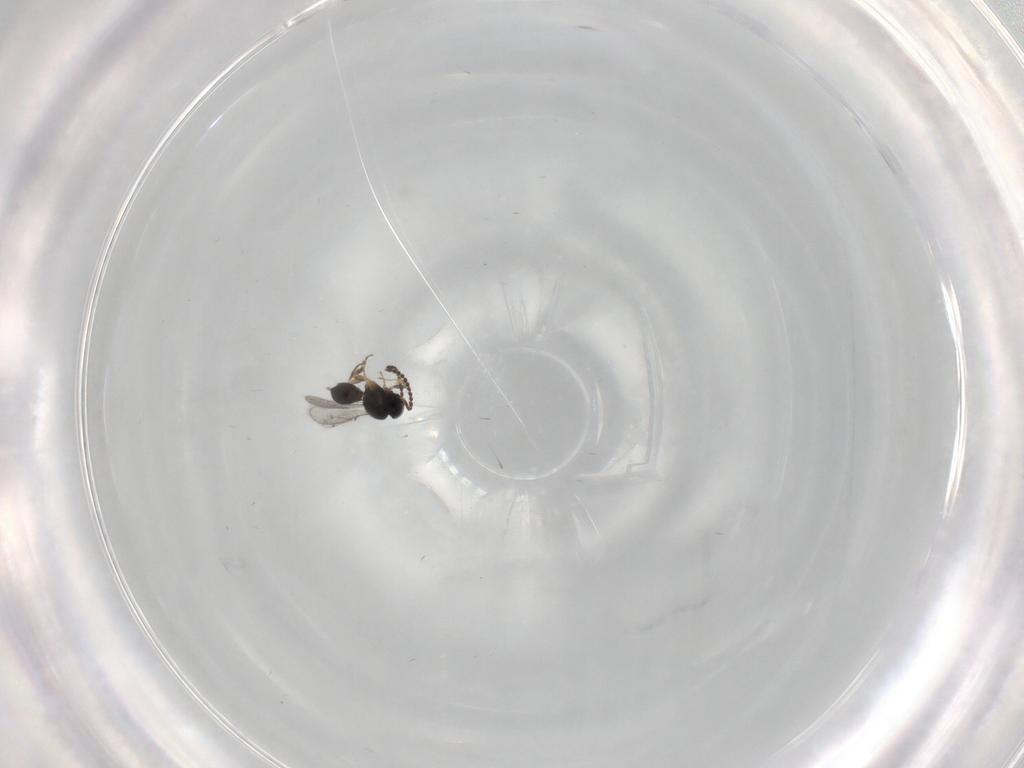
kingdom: Animalia
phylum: Arthropoda
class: Insecta
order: Hymenoptera
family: Scelionidae
